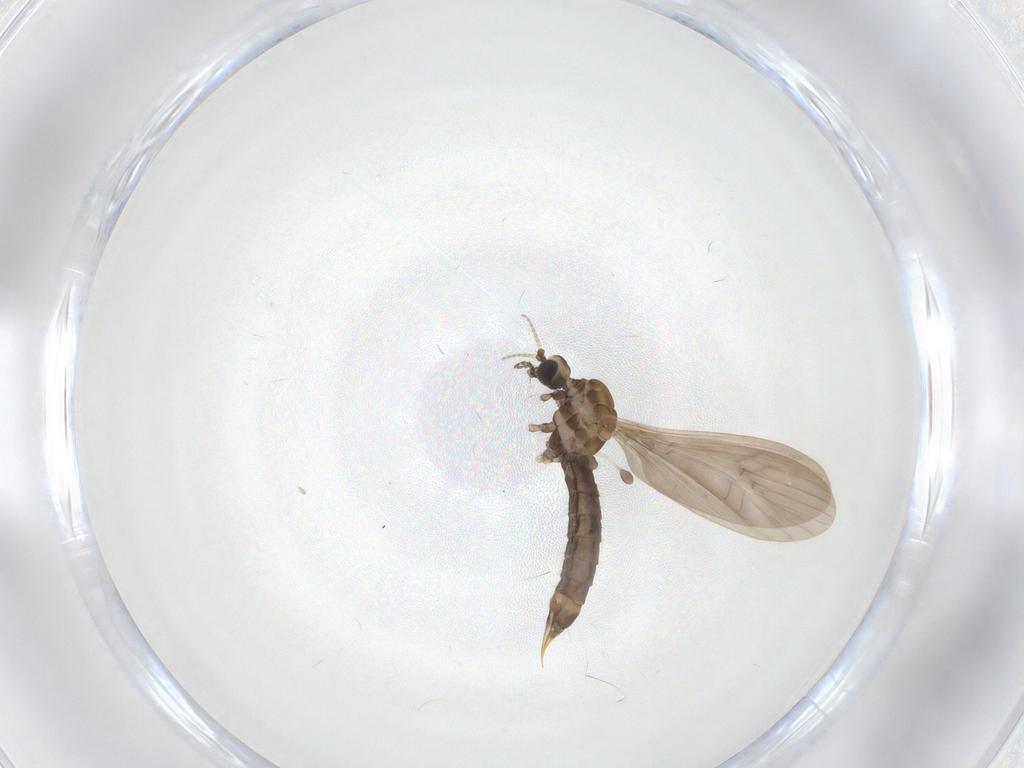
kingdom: Animalia
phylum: Arthropoda
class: Insecta
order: Diptera
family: Limoniidae
